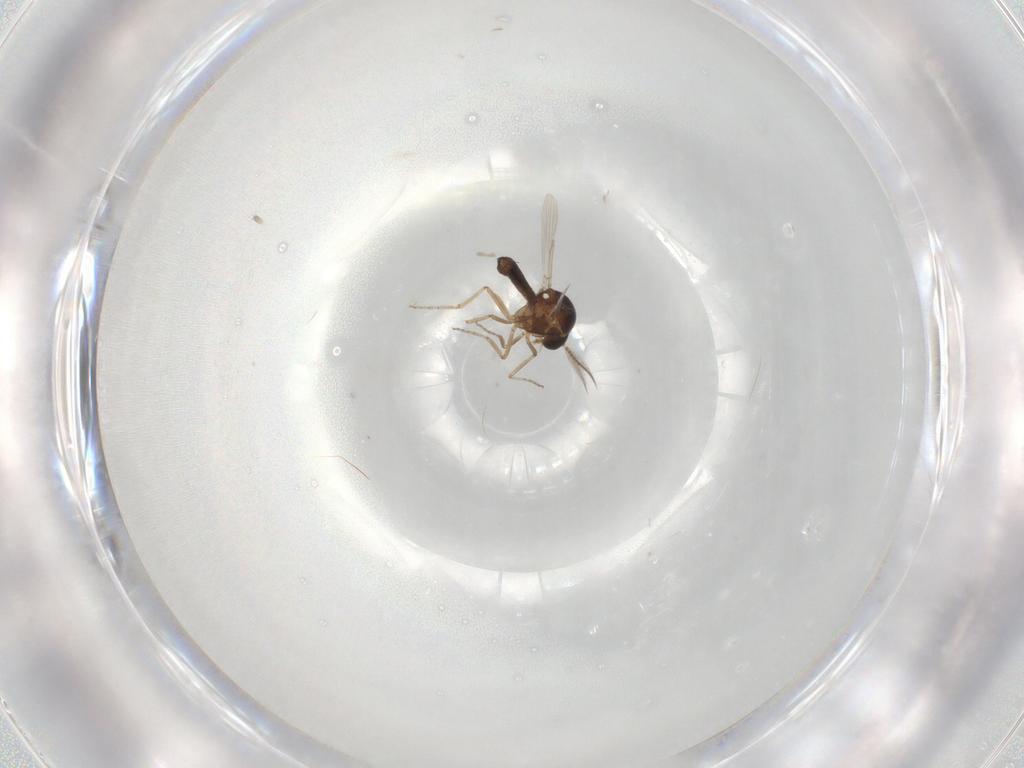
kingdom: Animalia
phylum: Arthropoda
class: Insecta
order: Diptera
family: Ceratopogonidae
